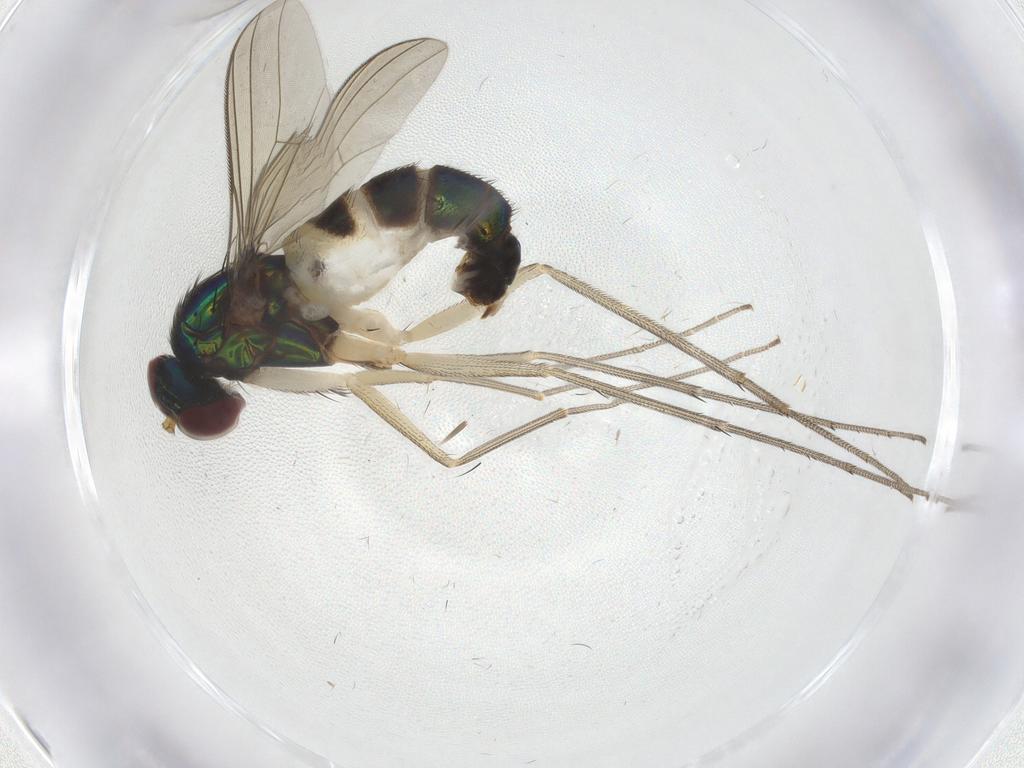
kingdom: Animalia
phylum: Arthropoda
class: Insecta
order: Diptera
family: Dolichopodidae
